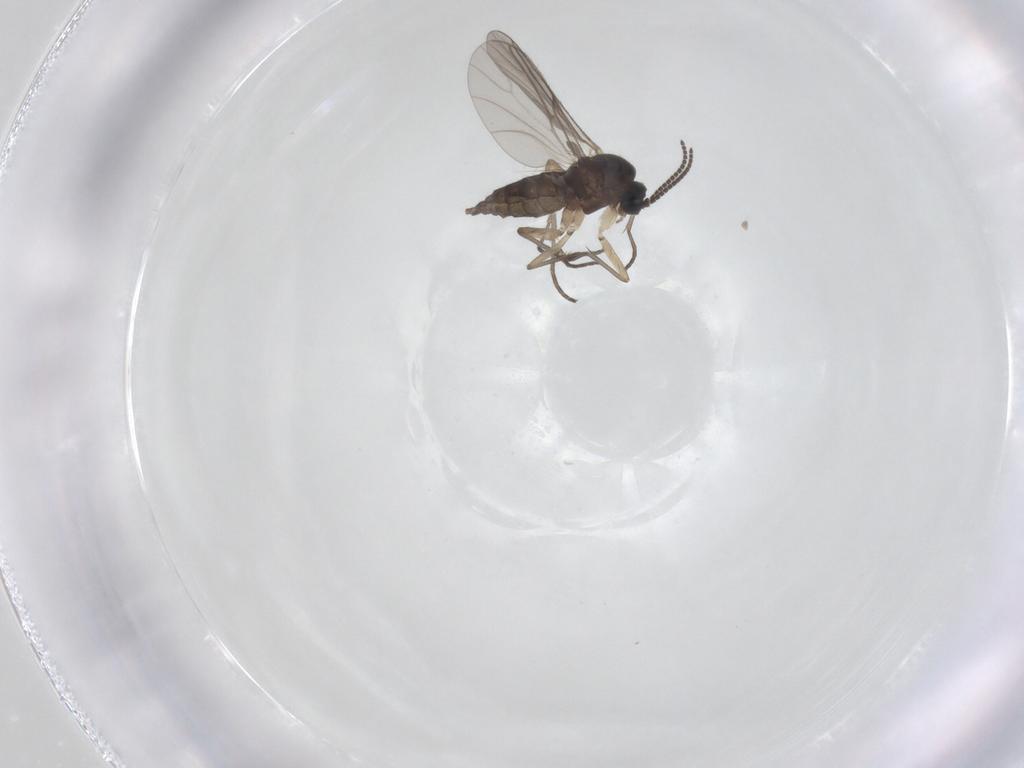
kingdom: Animalia
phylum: Arthropoda
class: Insecta
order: Diptera
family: Sciaridae
